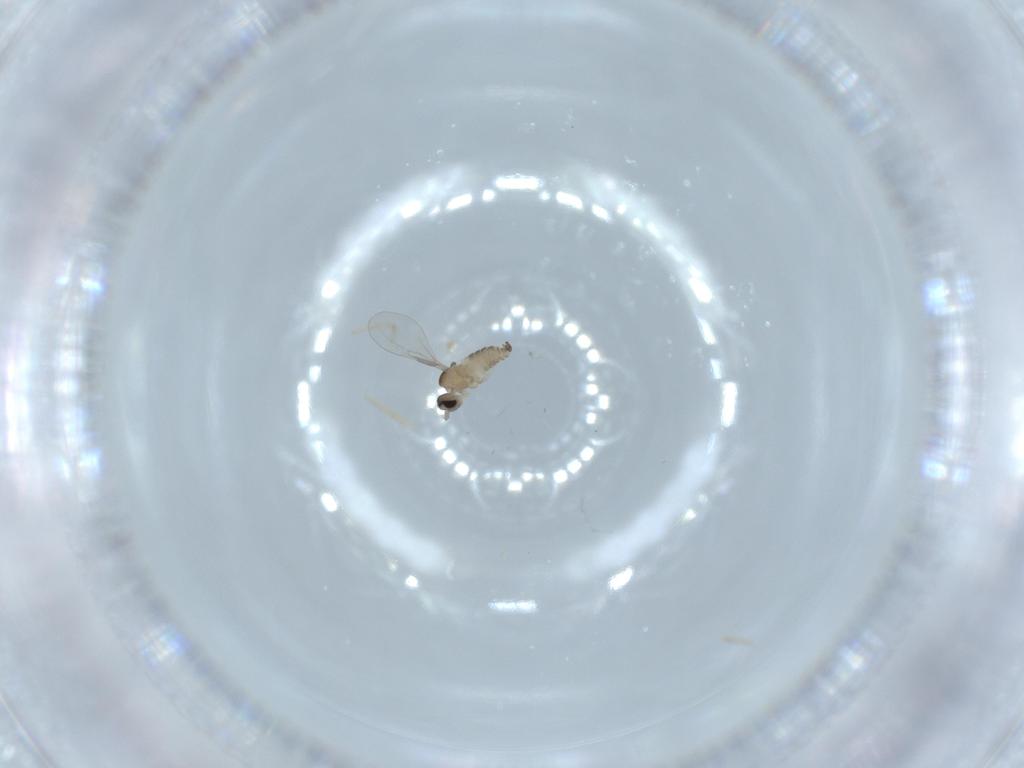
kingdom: Animalia
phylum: Arthropoda
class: Insecta
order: Diptera
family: Cecidomyiidae
